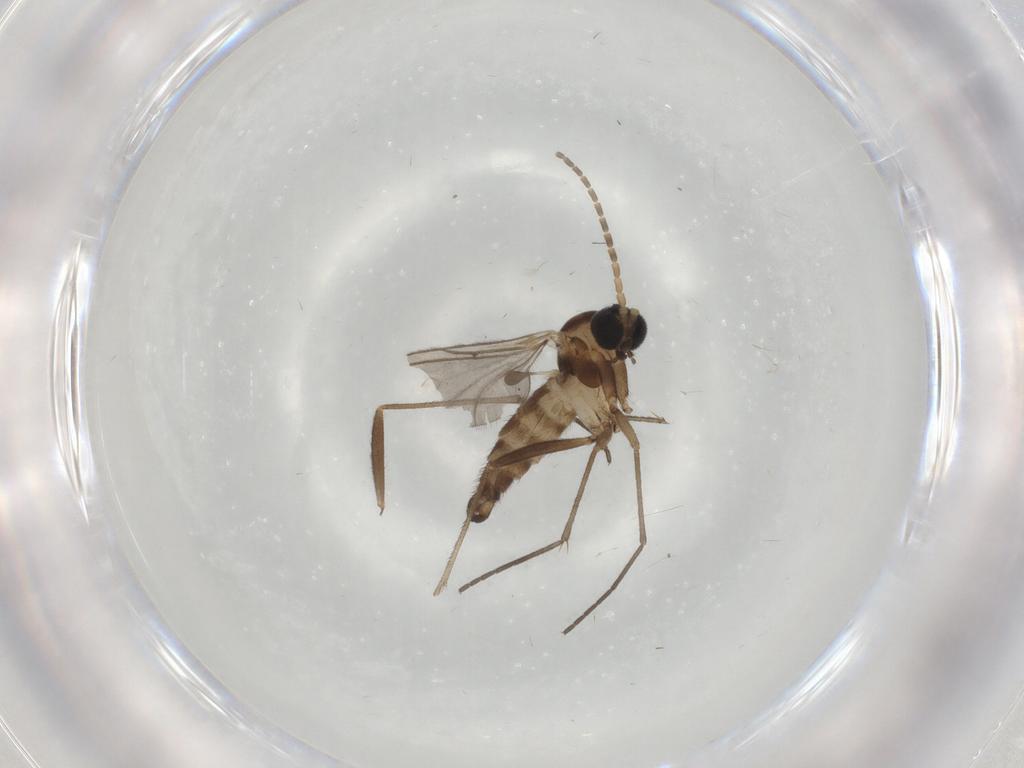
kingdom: Animalia
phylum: Arthropoda
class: Insecta
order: Diptera
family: Sciaridae
